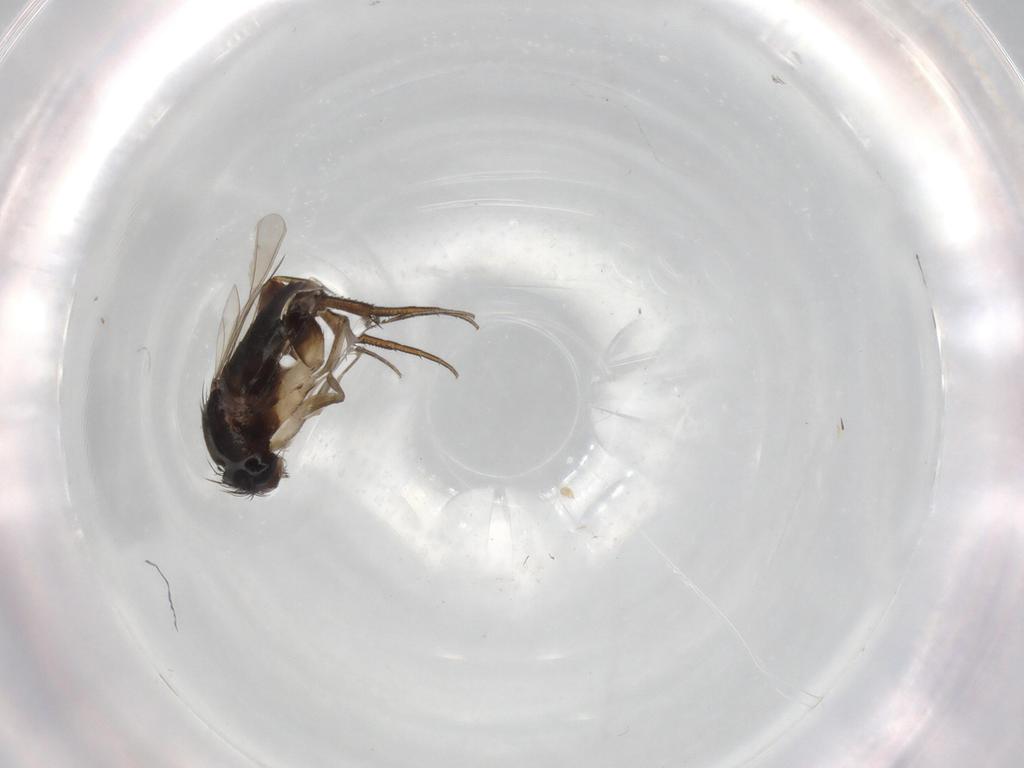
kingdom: Animalia
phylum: Arthropoda
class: Insecta
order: Diptera
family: Phoridae
